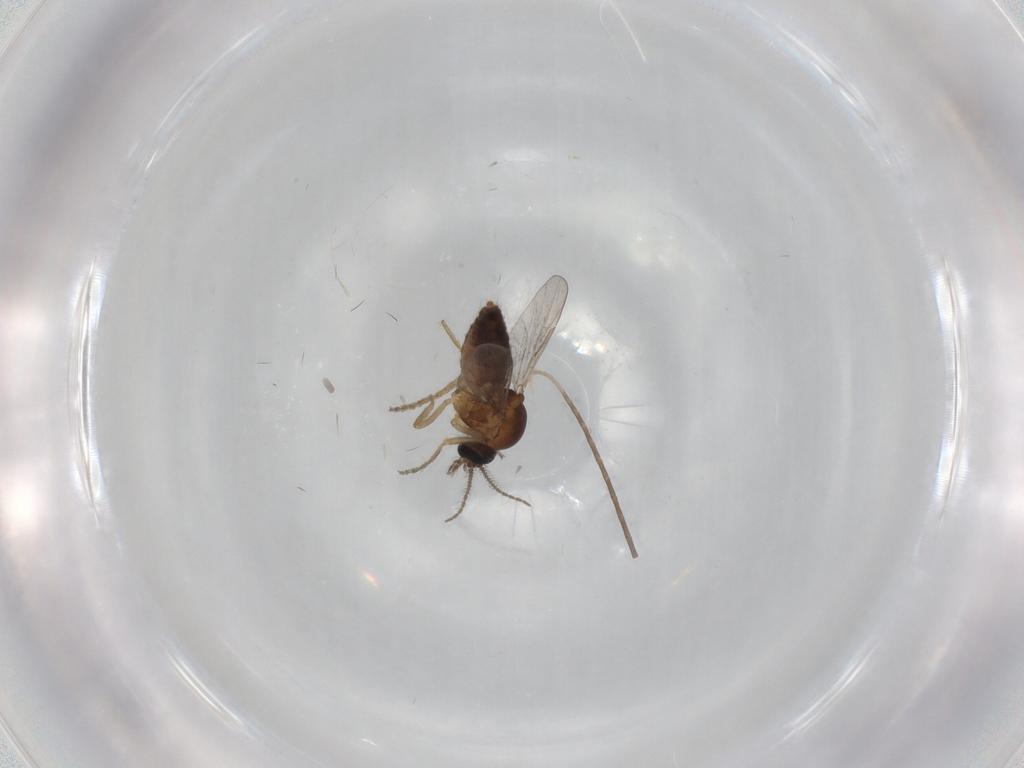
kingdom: Animalia
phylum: Arthropoda
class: Insecta
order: Diptera
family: Ceratopogonidae
